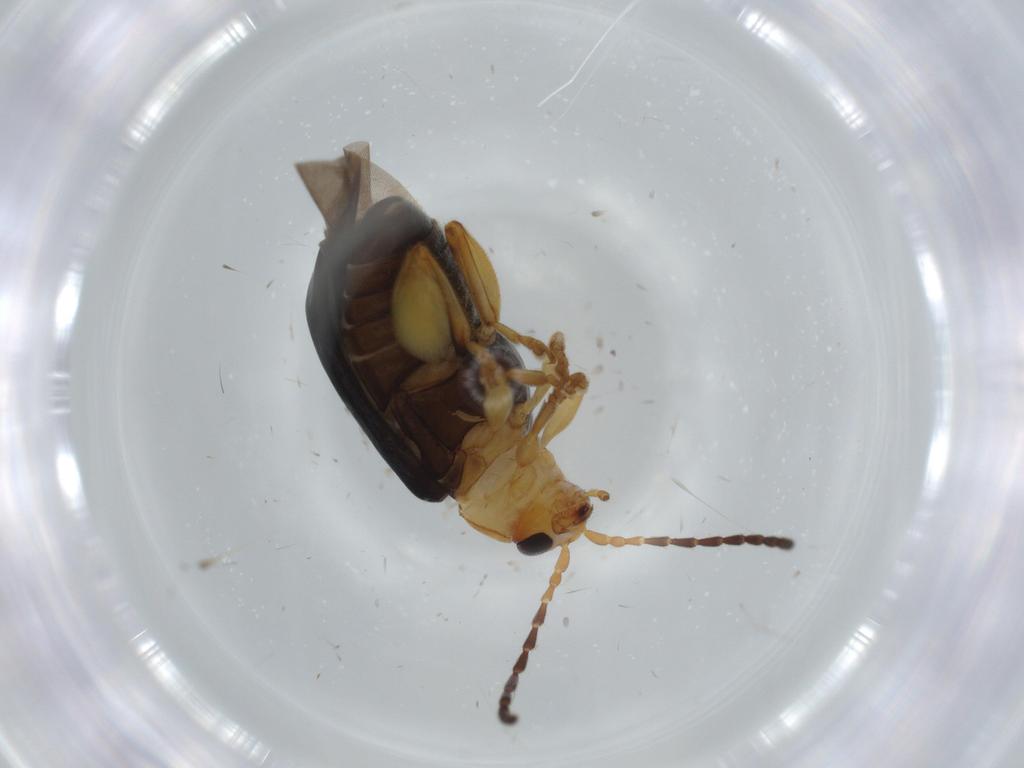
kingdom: Animalia
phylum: Arthropoda
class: Insecta
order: Coleoptera
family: Chrysomelidae
